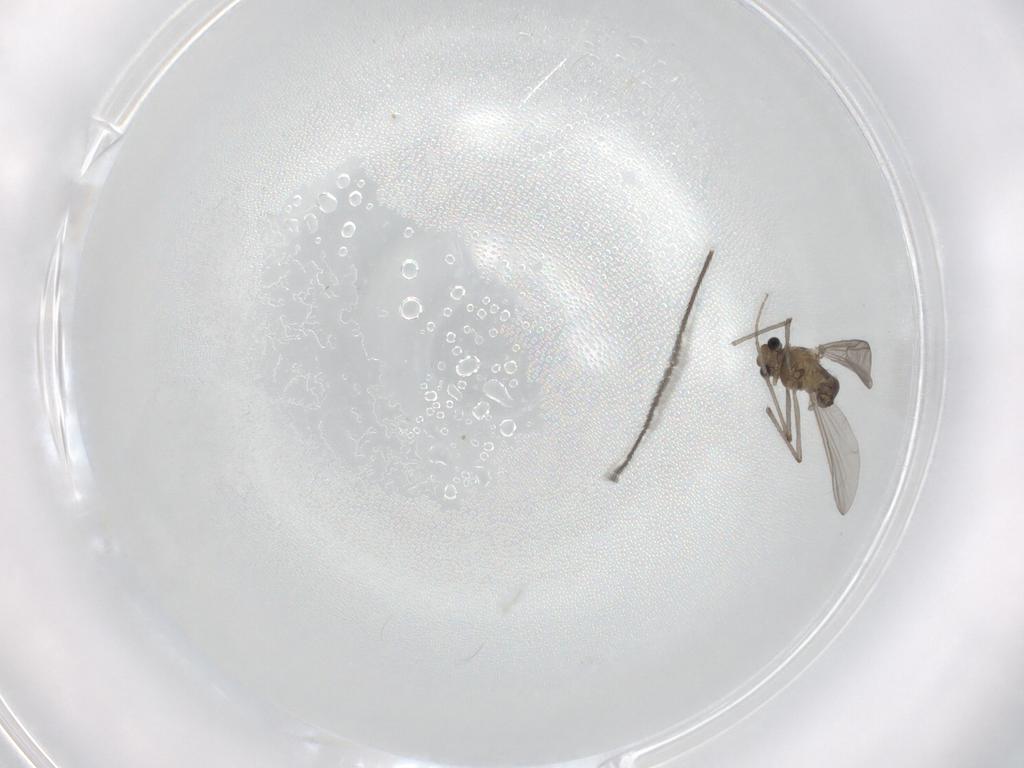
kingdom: Animalia
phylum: Arthropoda
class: Insecta
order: Diptera
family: Chironomidae
